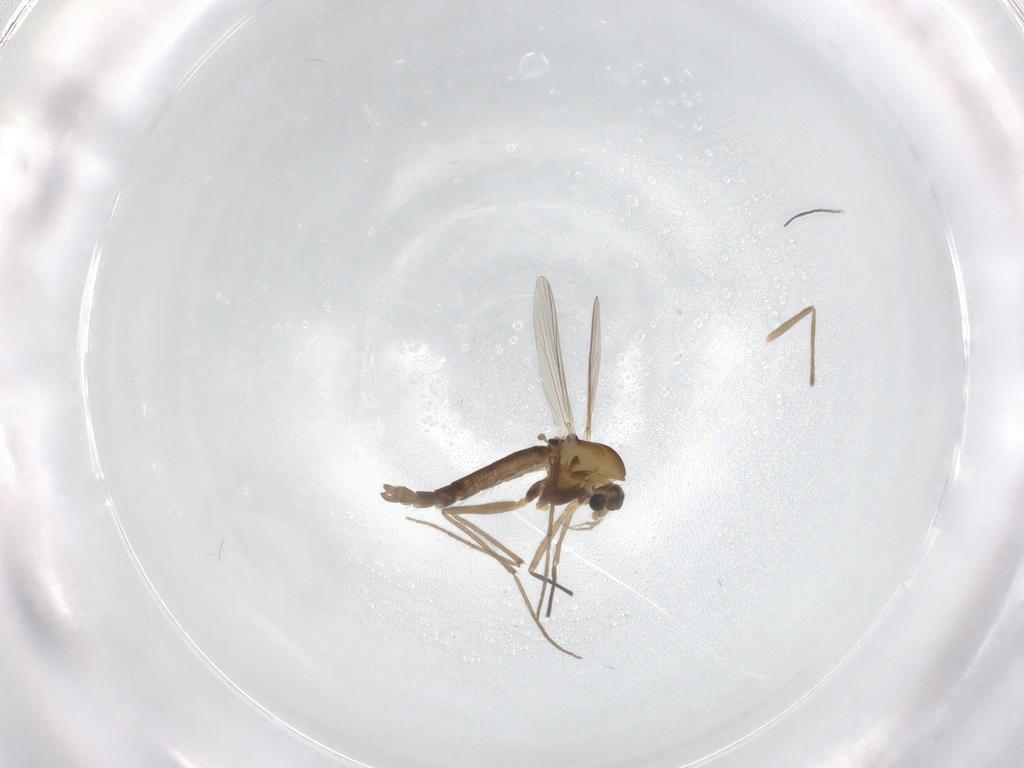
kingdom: Animalia
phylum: Arthropoda
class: Insecta
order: Diptera
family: Chironomidae
